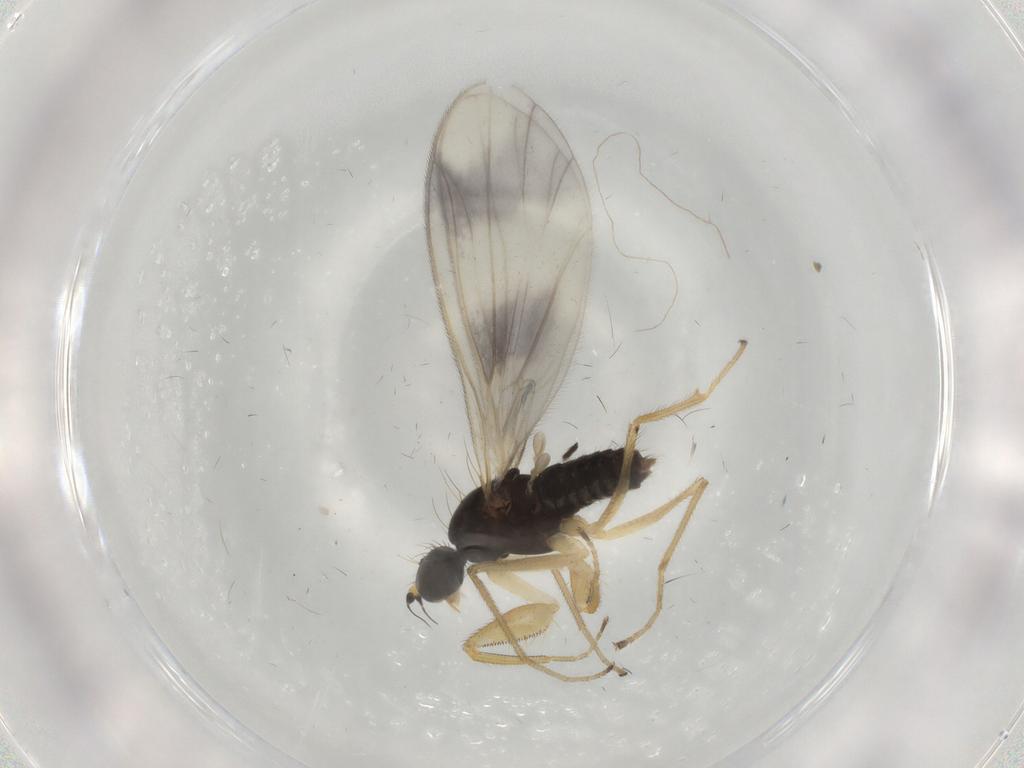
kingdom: Animalia
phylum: Arthropoda
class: Insecta
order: Diptera
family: Empididae
